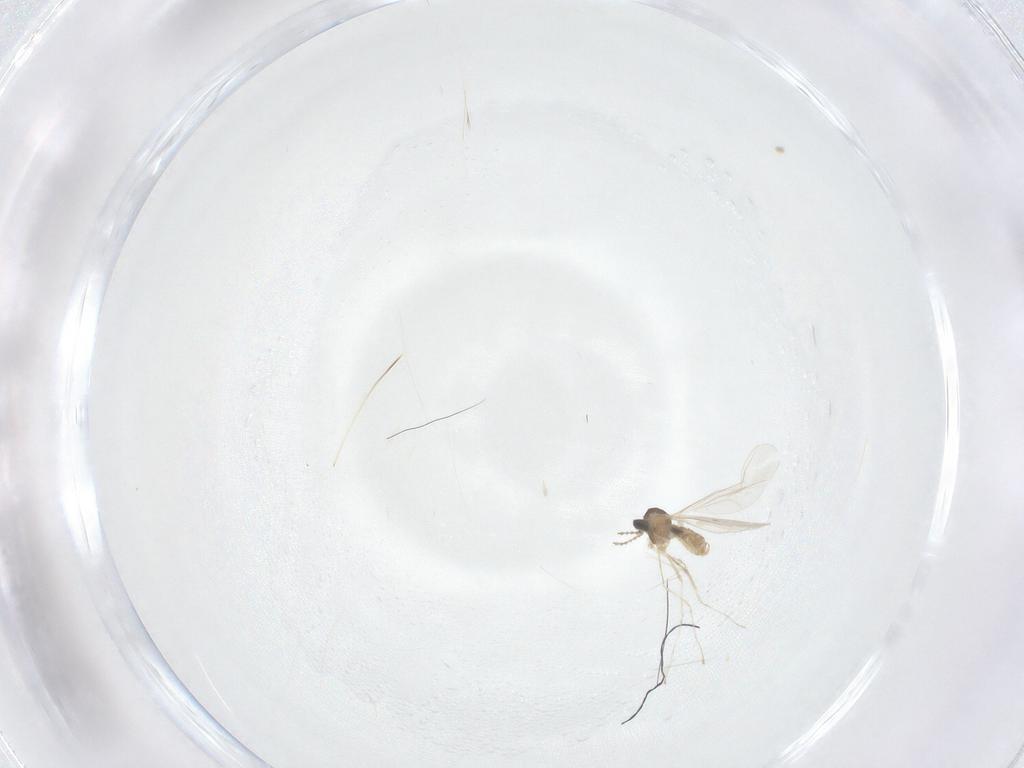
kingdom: Animalia
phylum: Arthropoda
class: Insecta
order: Diptera
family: Cecidomyiidae
